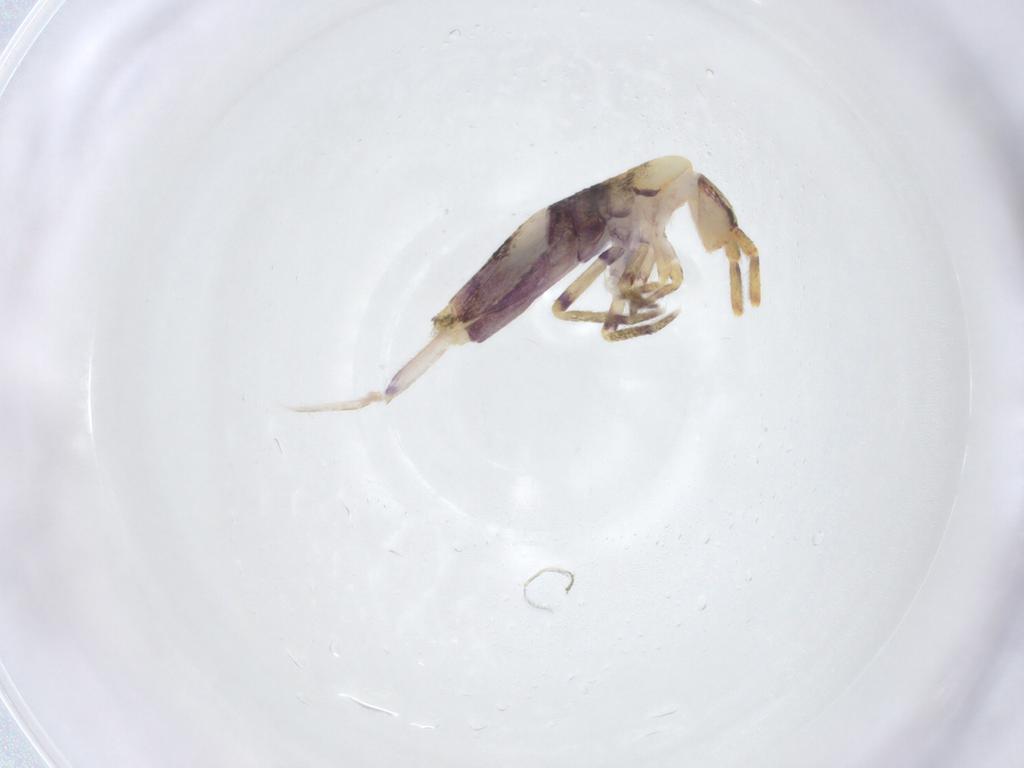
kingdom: Animalia
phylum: Arthropoda
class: Collembola
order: Entomobryomorpha
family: Entomobryidae
